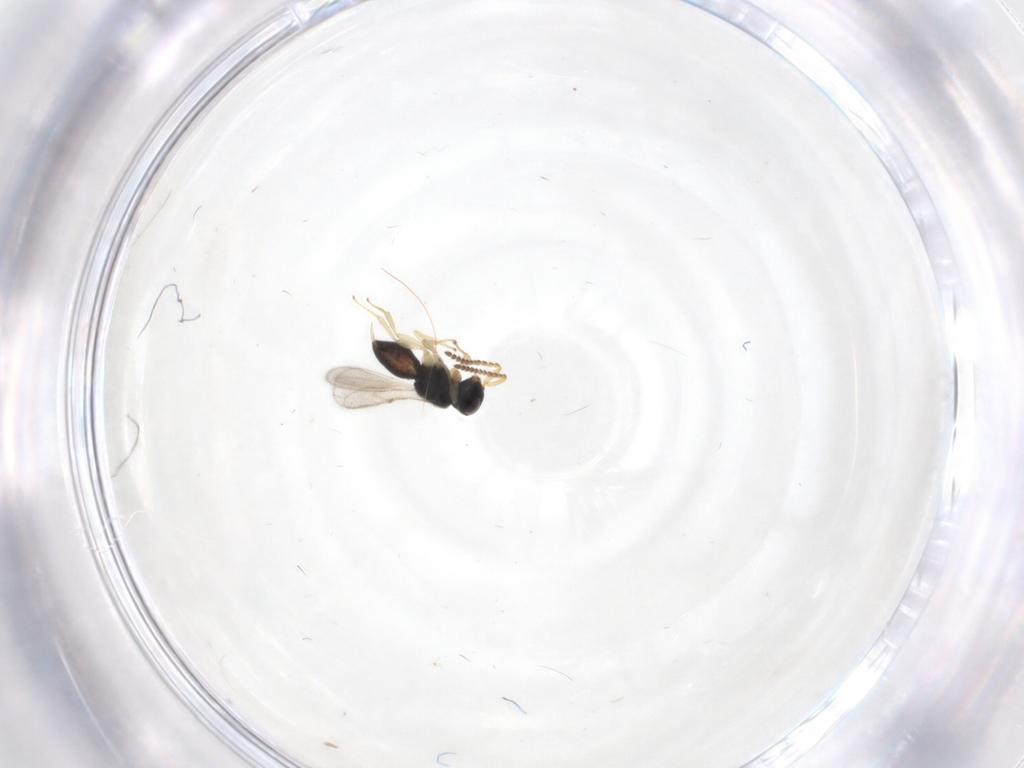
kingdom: Animalia
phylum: Arthropoda
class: Insecta
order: Hymenoptera
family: Scelionidae
